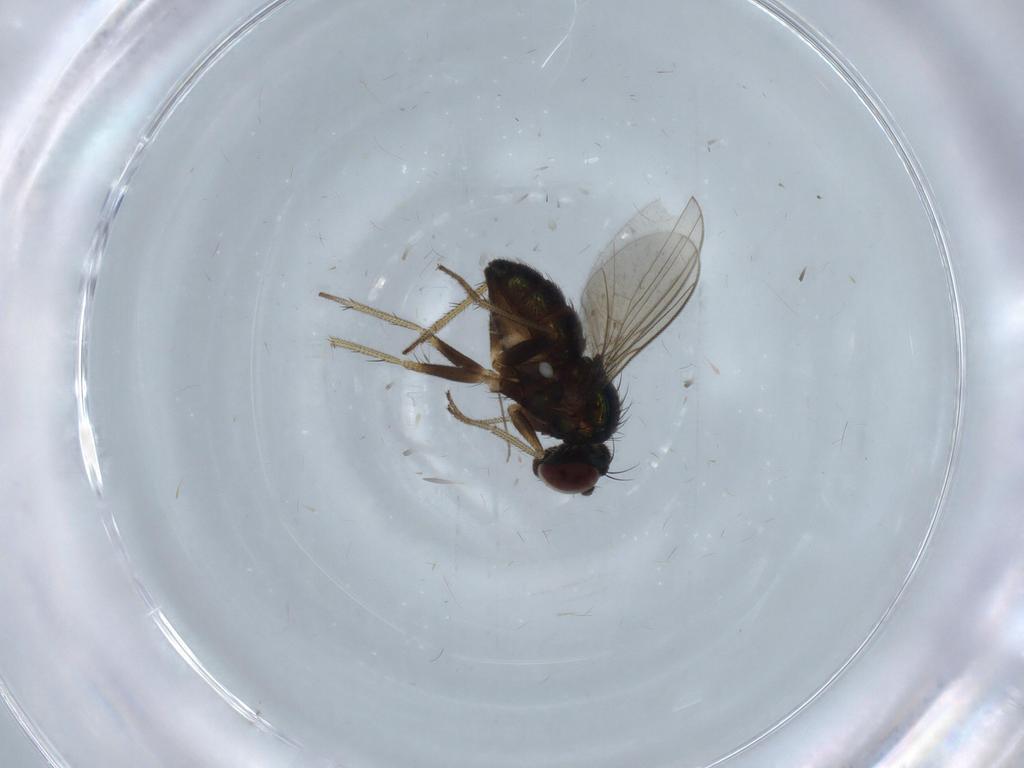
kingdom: Animalia
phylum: Arthropoda
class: Insecta
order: Diptera
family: Dolichopodidae
